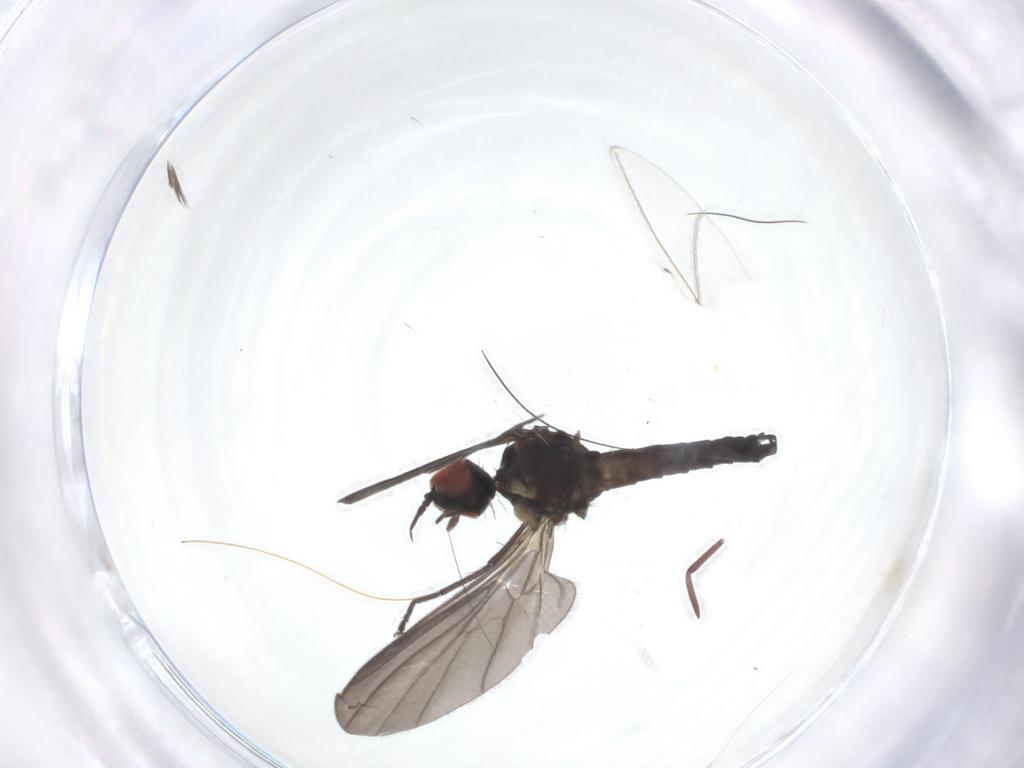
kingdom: Animalia
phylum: Arthropoda
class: Insecta
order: Diptera
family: Empididae
